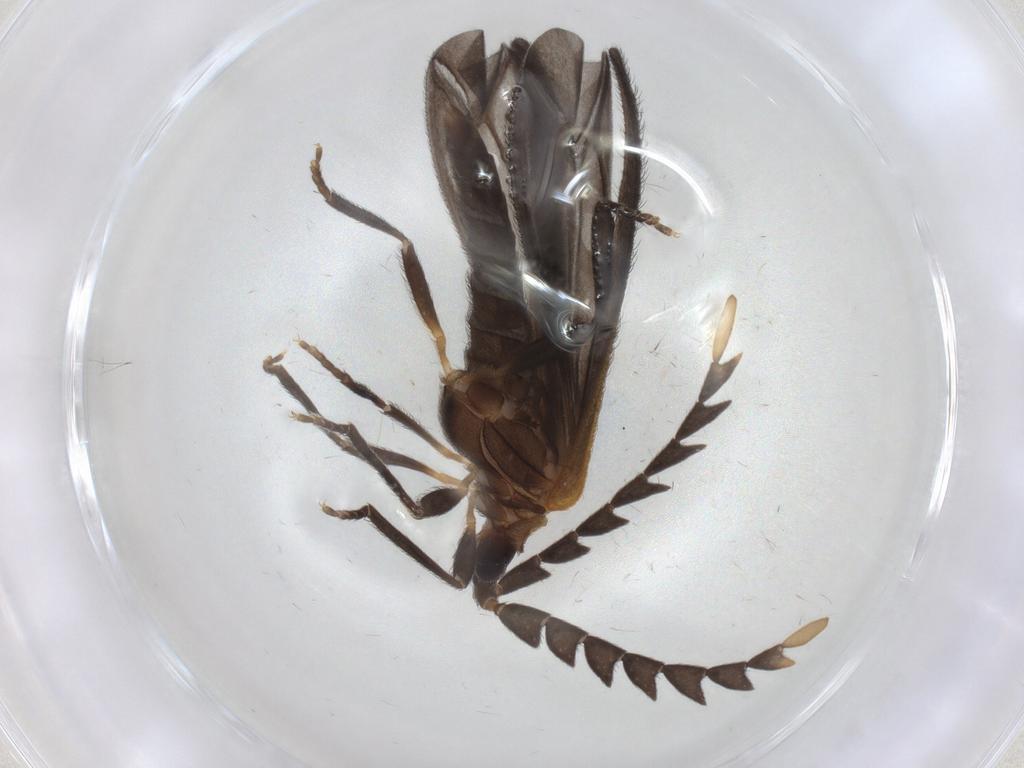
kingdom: Animalia
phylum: Arthropoda
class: Insecta
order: Coleoptera
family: Lycidae
